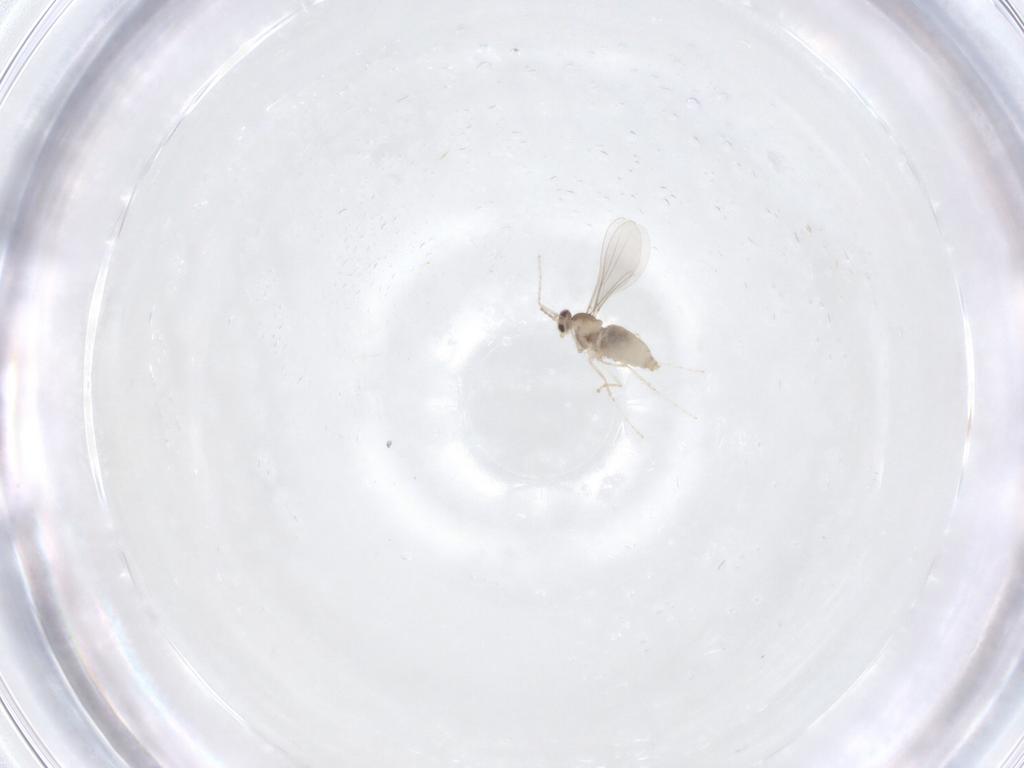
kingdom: Animalia
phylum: Arthropoda
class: Insecta
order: Diptera
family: Cecidomyiidae
